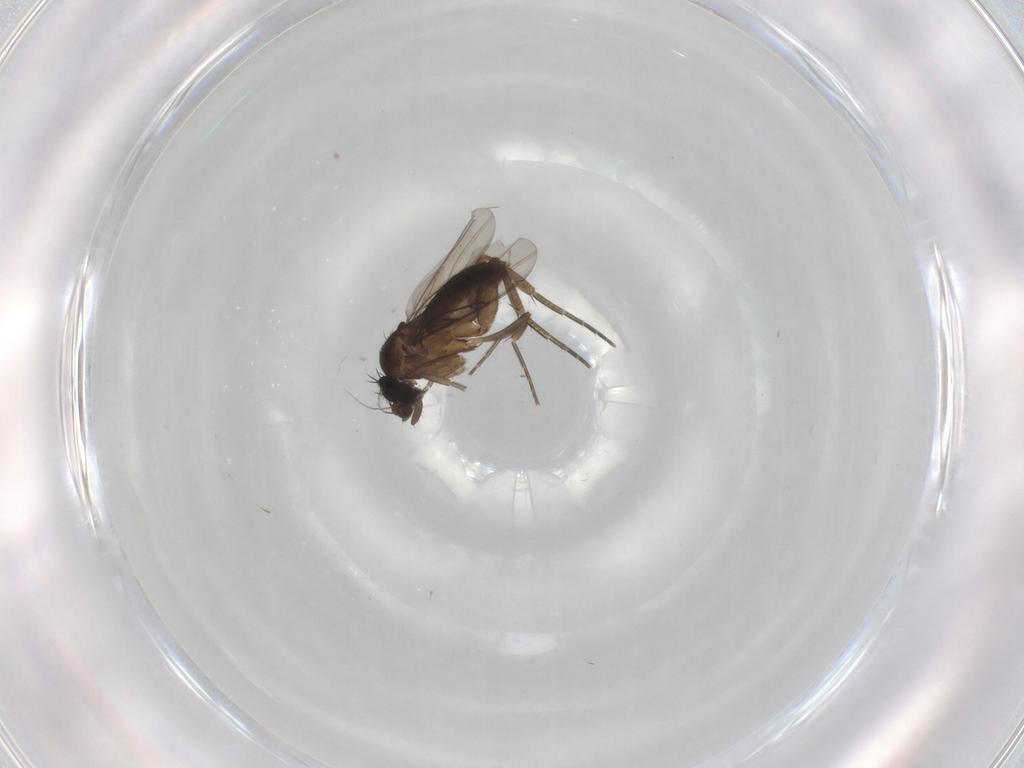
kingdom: Animalia
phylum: Arthropoda
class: Insecta
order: Diptera
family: Phoridae
